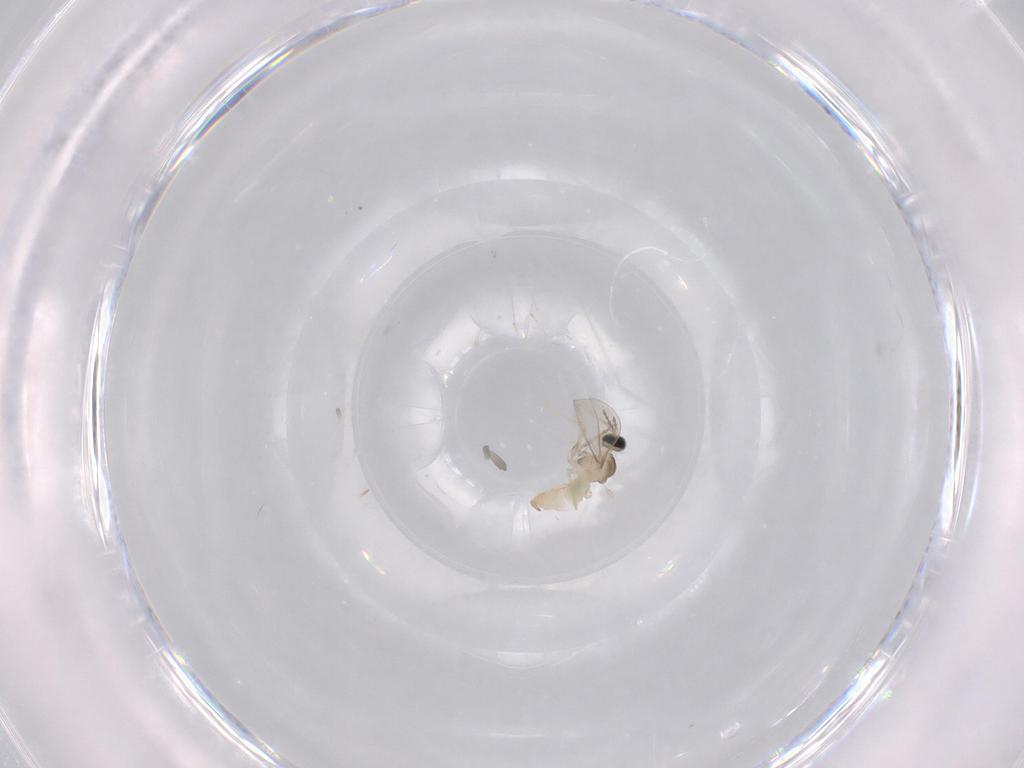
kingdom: Animalia
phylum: Arthropoda
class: Insecta
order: Diptera
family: Cecidomyiidae
